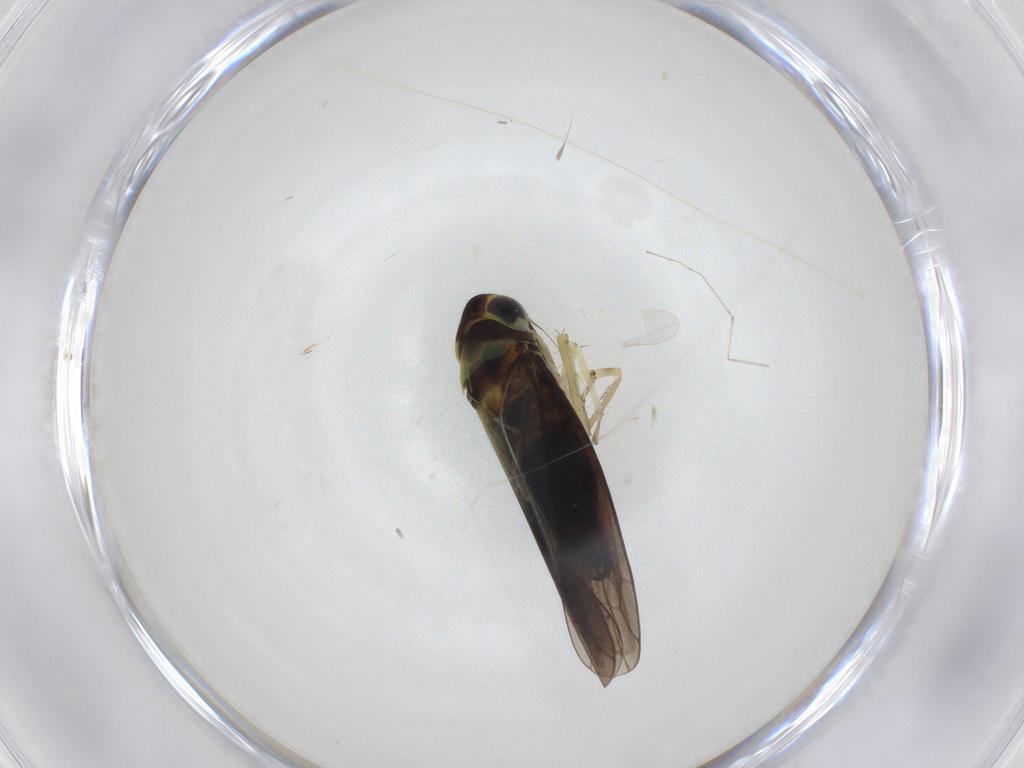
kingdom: Animalia
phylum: Arthropoda
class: Insecta
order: Hemiptera
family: Cicadellidae
